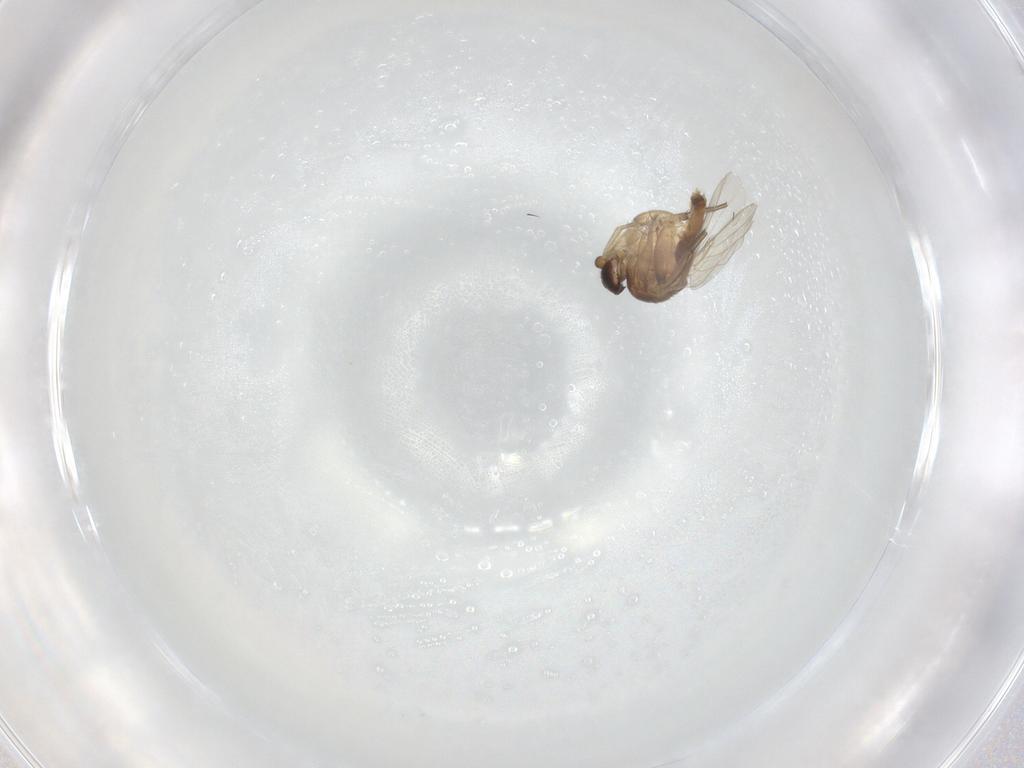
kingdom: Animalia
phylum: Arthropoda
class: Insecta
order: Diptera
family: Phoridae
